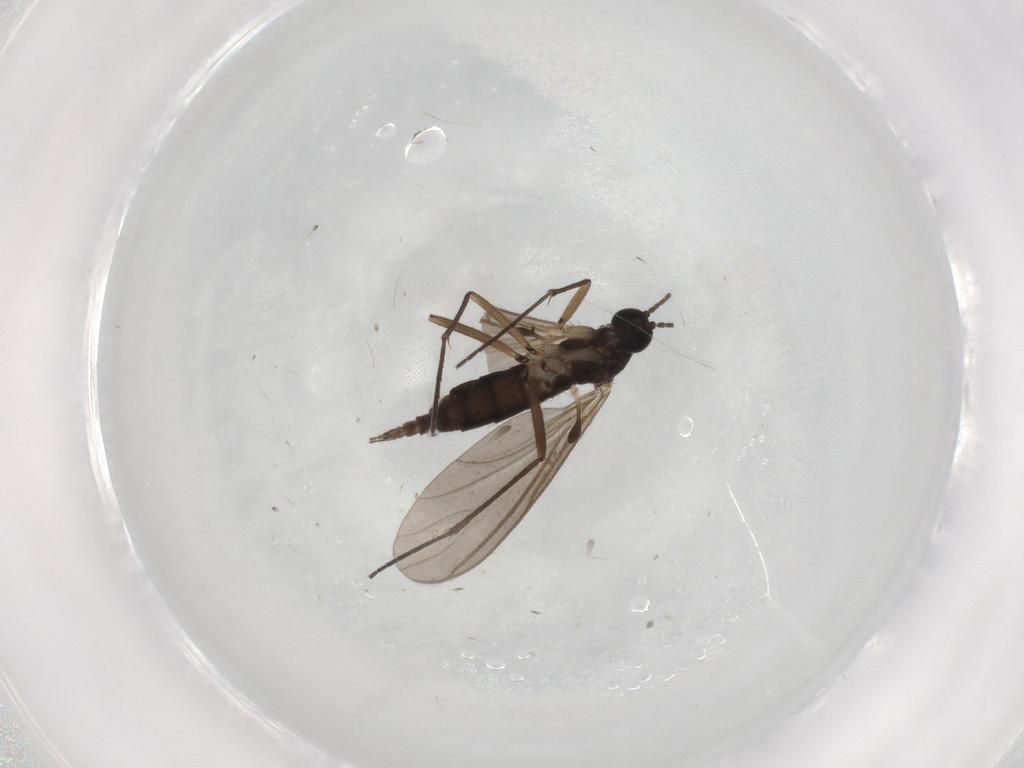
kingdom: Animalia
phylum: Arthropoda
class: Insecta
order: Diptera
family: Sciaridae
